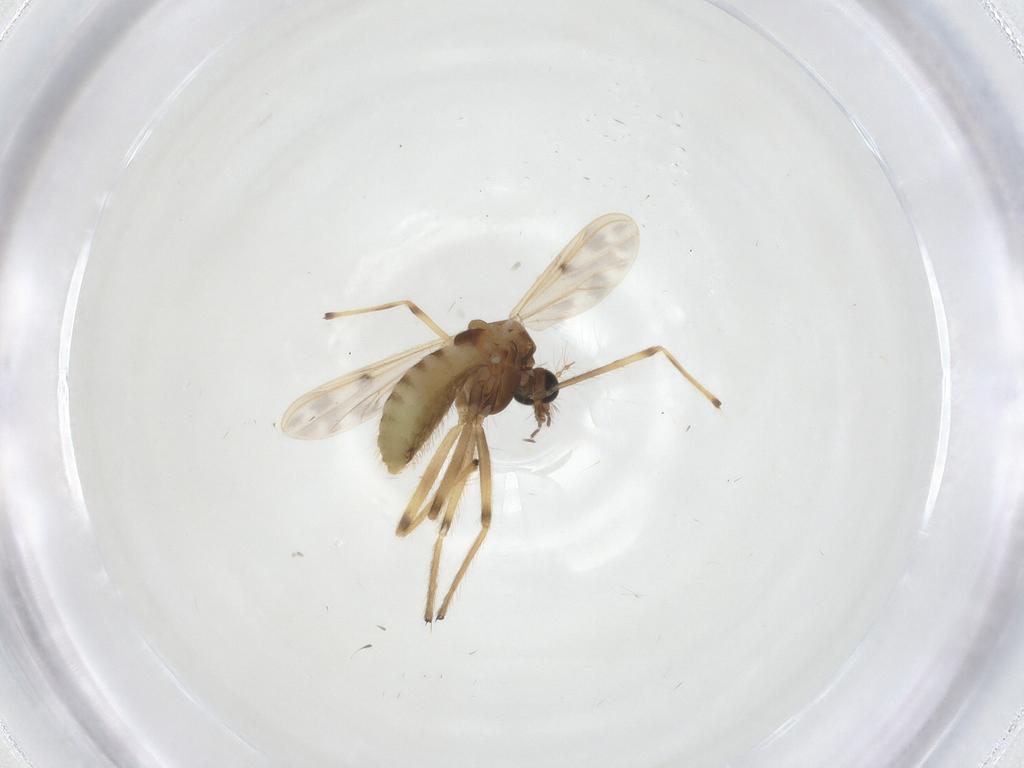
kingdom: Animalia
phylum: Arthropoda
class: Insecta
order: Diptera
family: Chironomidae
